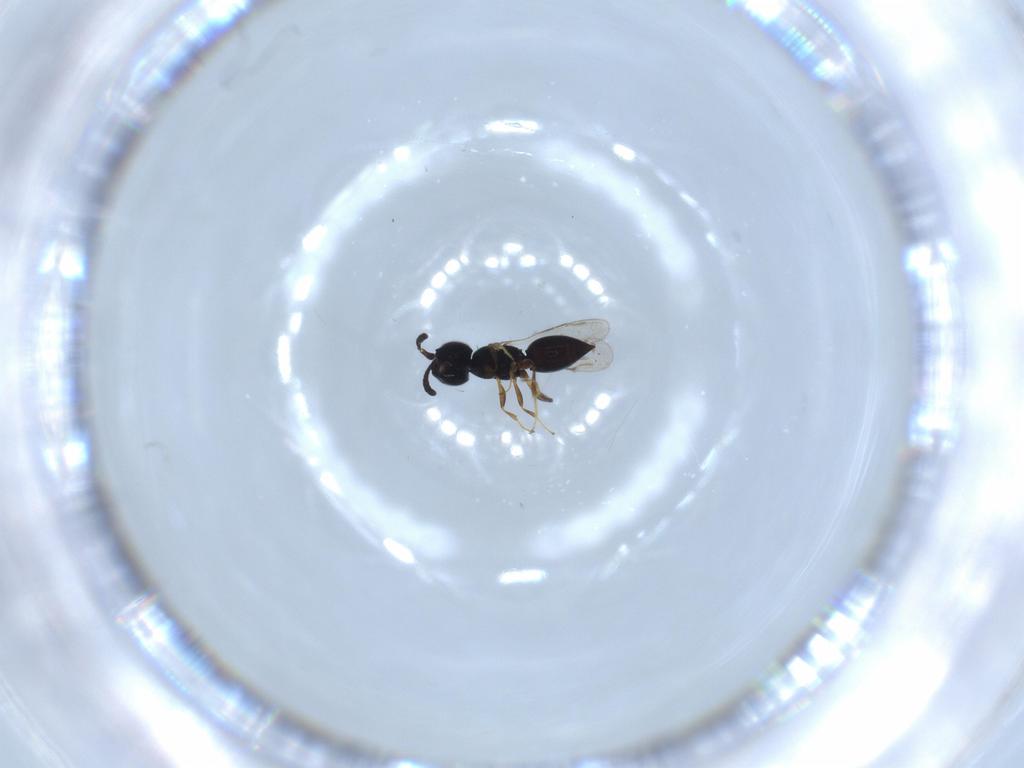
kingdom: Animalia
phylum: Arthropoda
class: Insecta
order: Hymenoptera
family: Ceraphronidae
